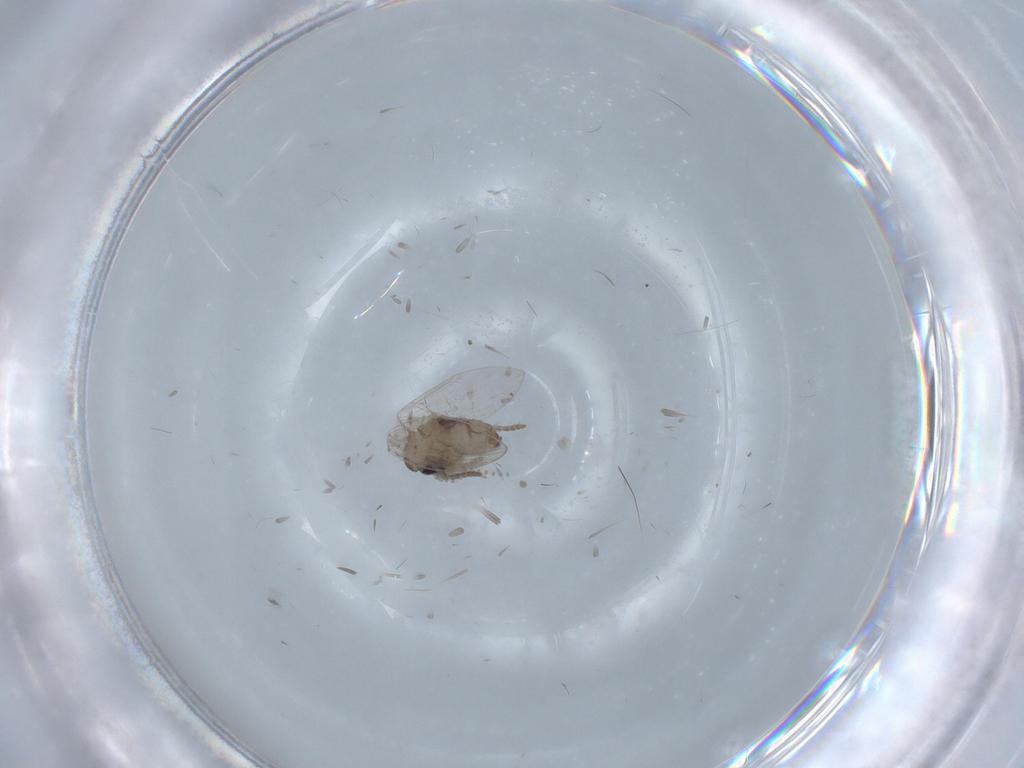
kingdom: Animalia
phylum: Arthropoda
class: Insecta
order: Diptera
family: Psychodidae
